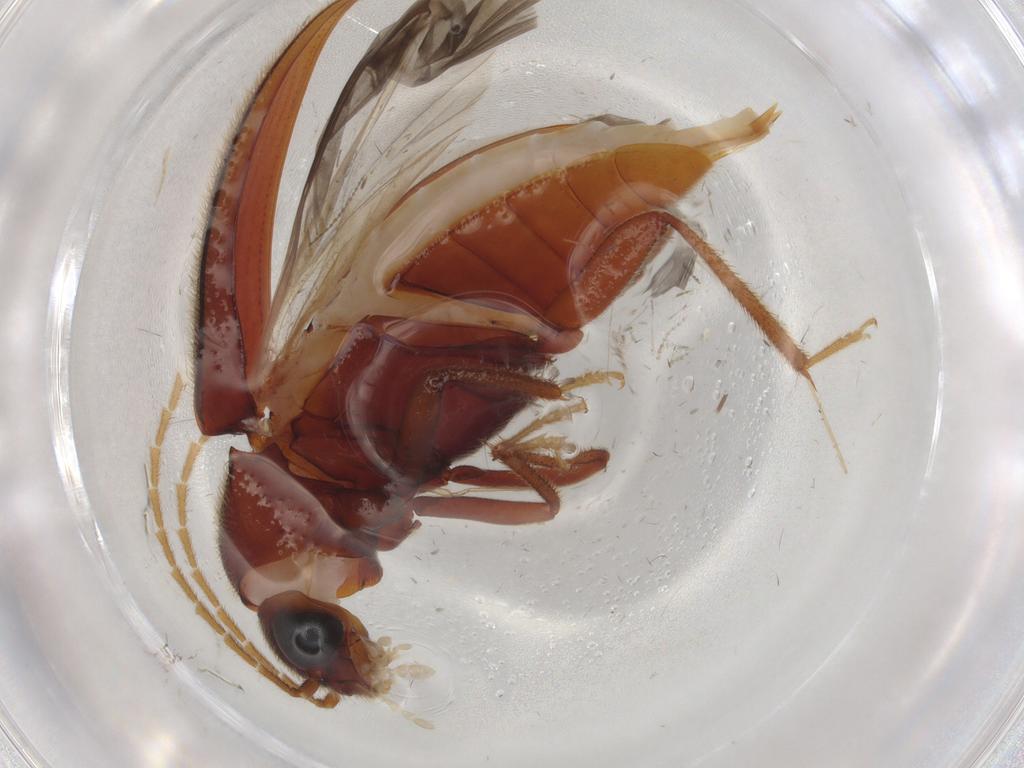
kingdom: Animalia
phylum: Arthropoda
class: Insecta
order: Coleoptera
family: Ptilodactylidae
